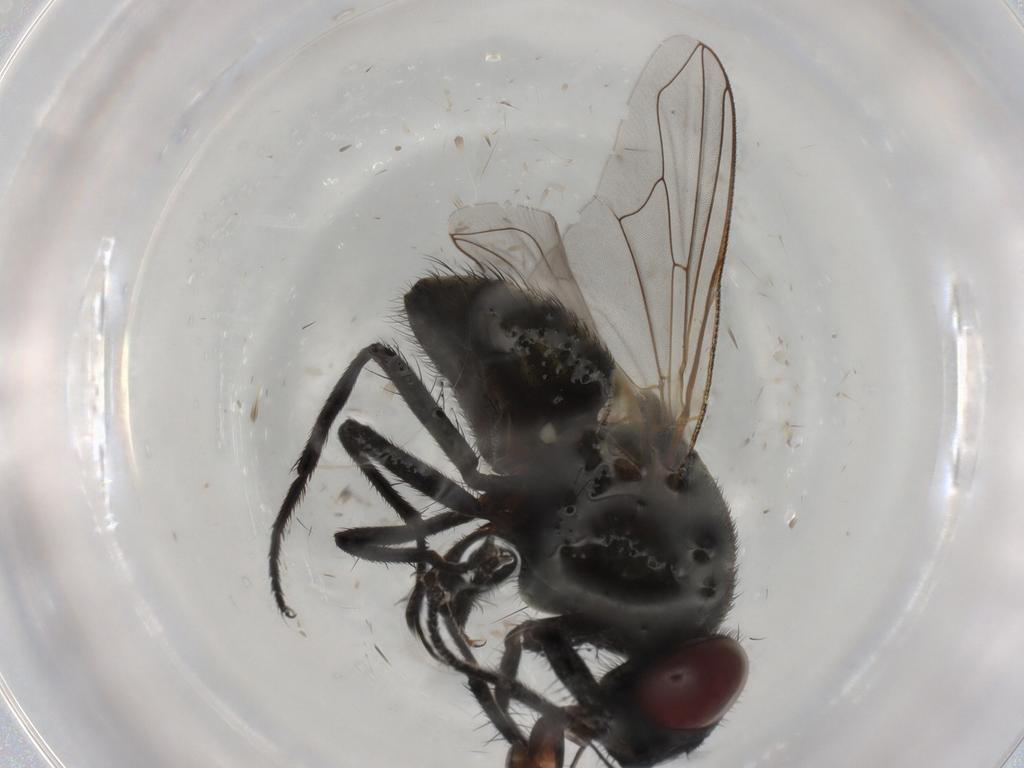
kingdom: Animalia
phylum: Arthropoda
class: Insecta
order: Diptera
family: Muscidae
